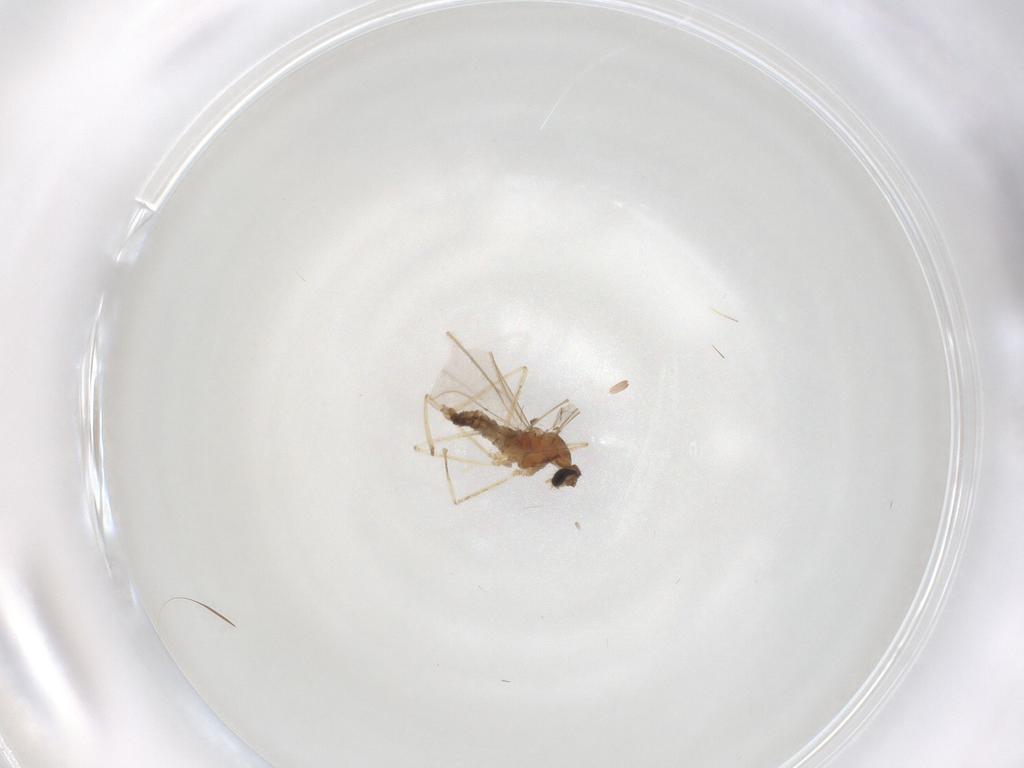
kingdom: Animalia
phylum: Arthropoda
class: Insecta
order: Diptera
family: Cecidomyiidae
